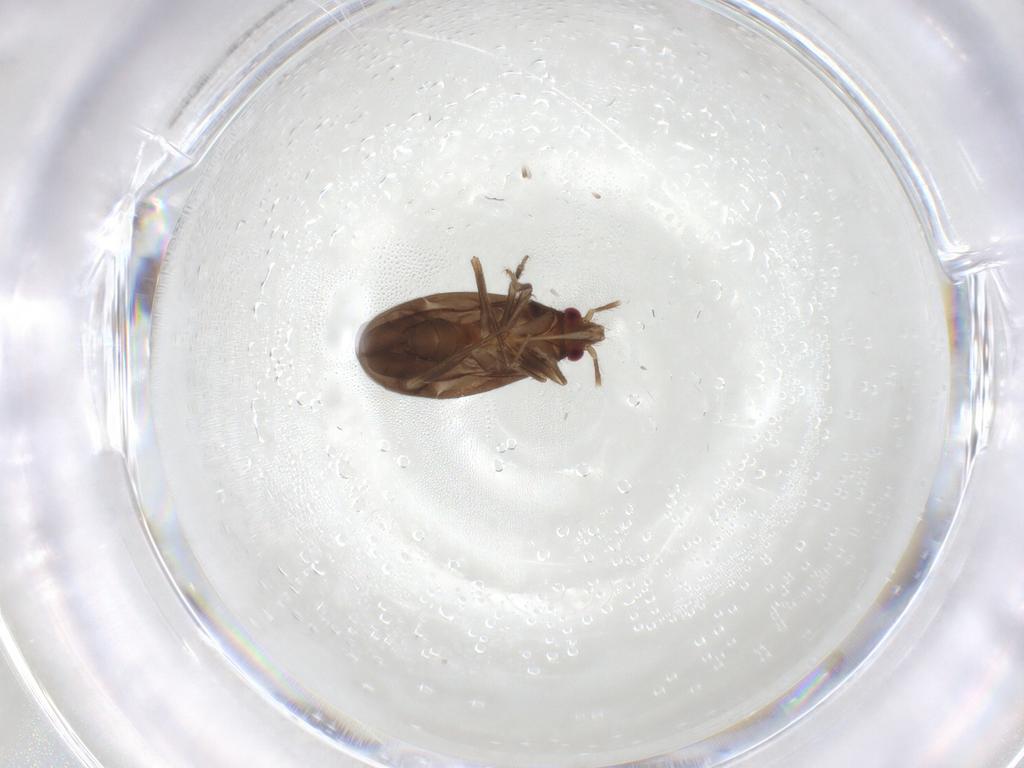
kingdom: Animalia
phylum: Arthropoda
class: Insecta
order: Hemiptera
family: Ceratocombidae
